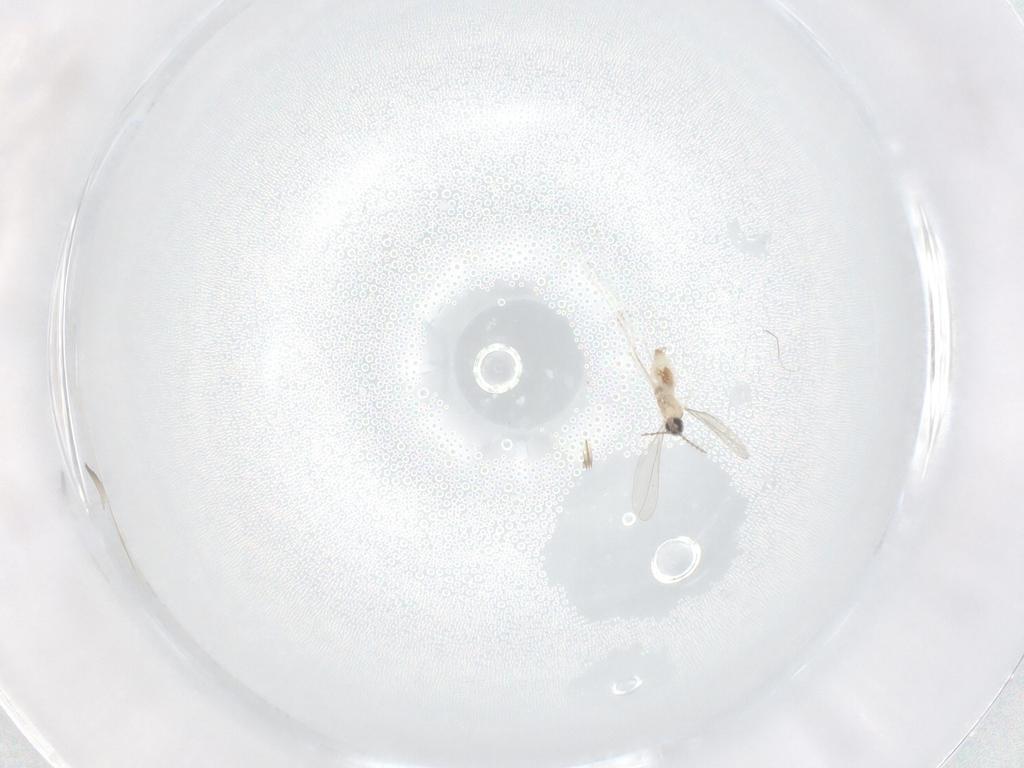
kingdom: Animalia
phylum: Arthropoda
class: Insecta
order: Diptera
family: Cecidomyiidae
